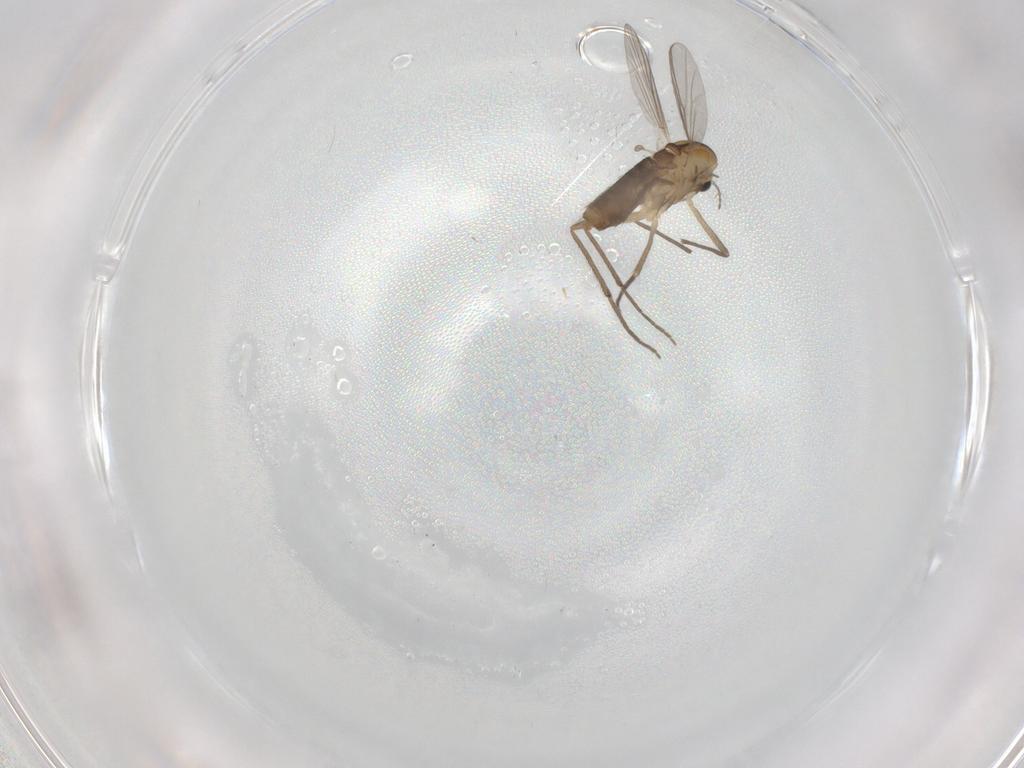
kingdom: Animalia
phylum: Arthropoda
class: Insecta
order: Diptera
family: Chironomidae
